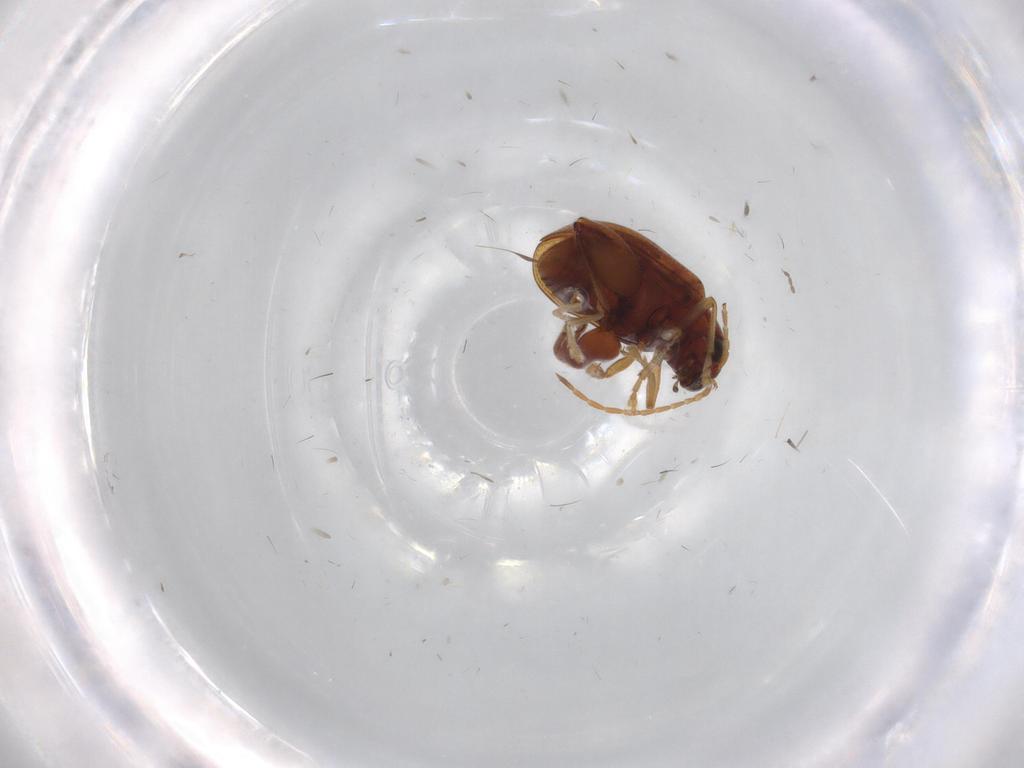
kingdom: Animalia
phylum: Arthropoda
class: Insecta
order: Coleoptera
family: Chrysomelidae
